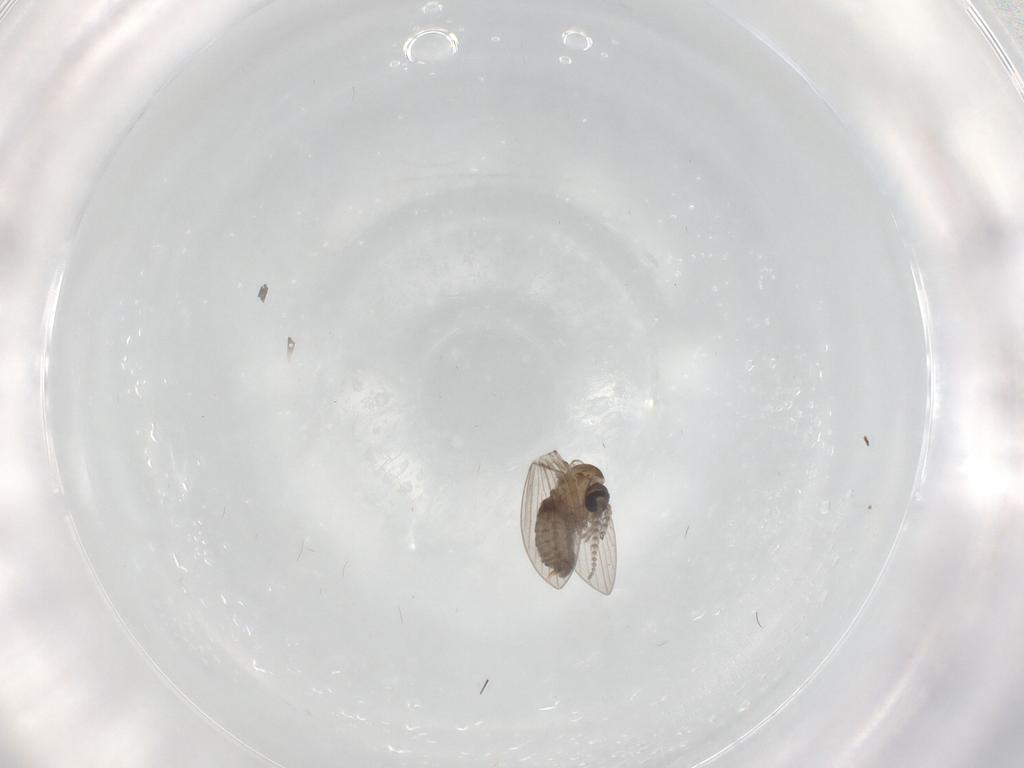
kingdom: Animalia
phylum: Arthropoda
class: Insecta
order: Diptera
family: Psychodidae
